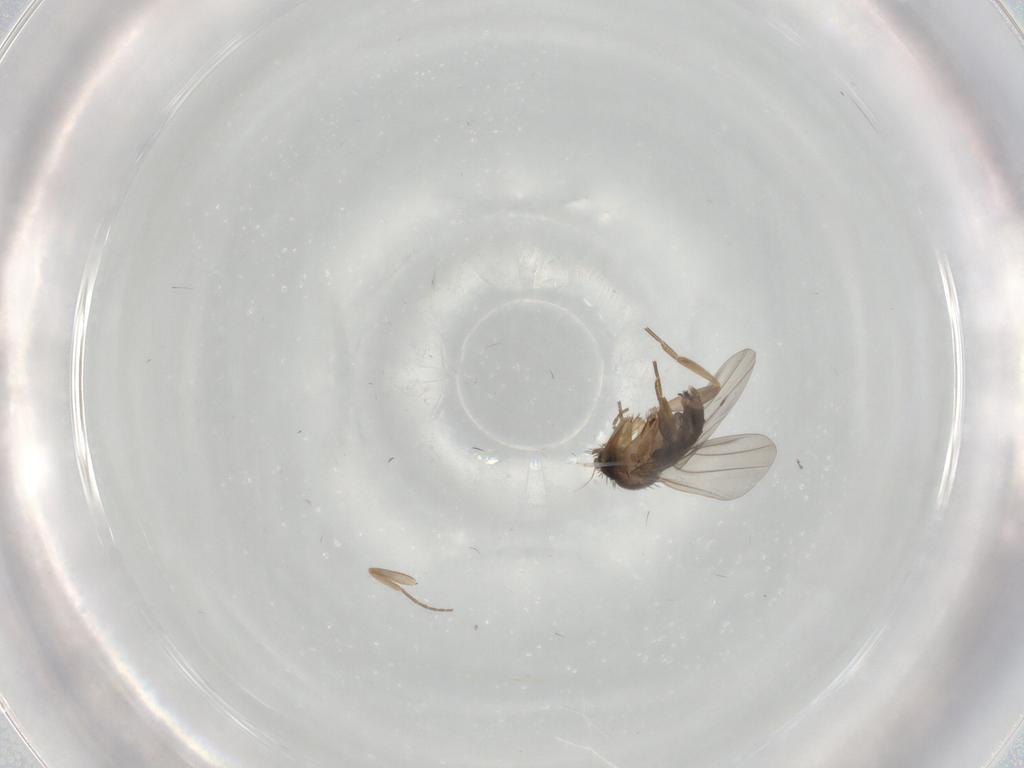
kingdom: Animalia
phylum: Arthropoda
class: Insecta
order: Diptera
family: Cecidomyiidae
